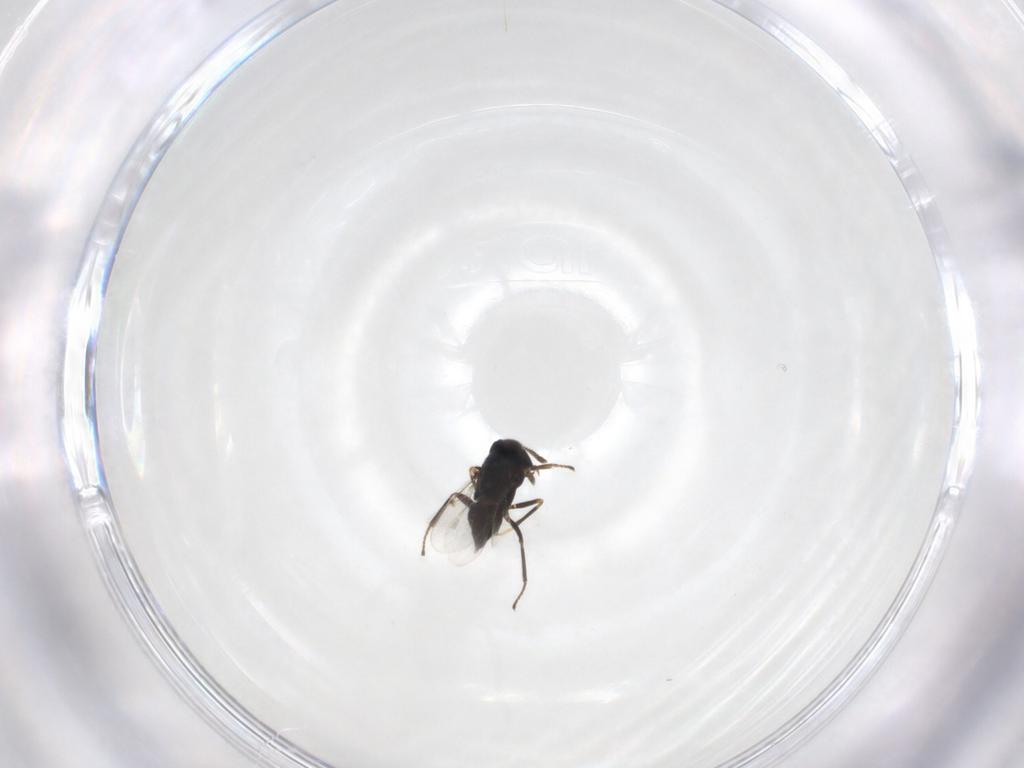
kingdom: Animalia
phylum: Arthropoda
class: Insecta
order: Hymenoptera
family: Encyrtidae
